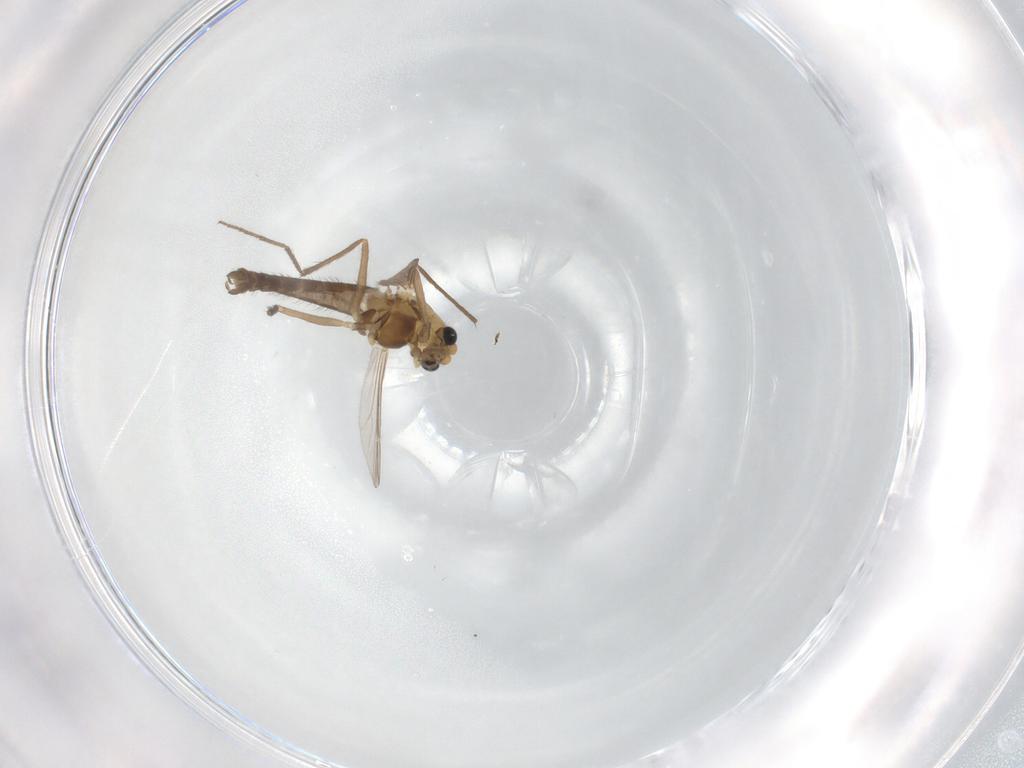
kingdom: Animalia
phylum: Arthropoda
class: Insecta
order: Diptera
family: Chironomidae
